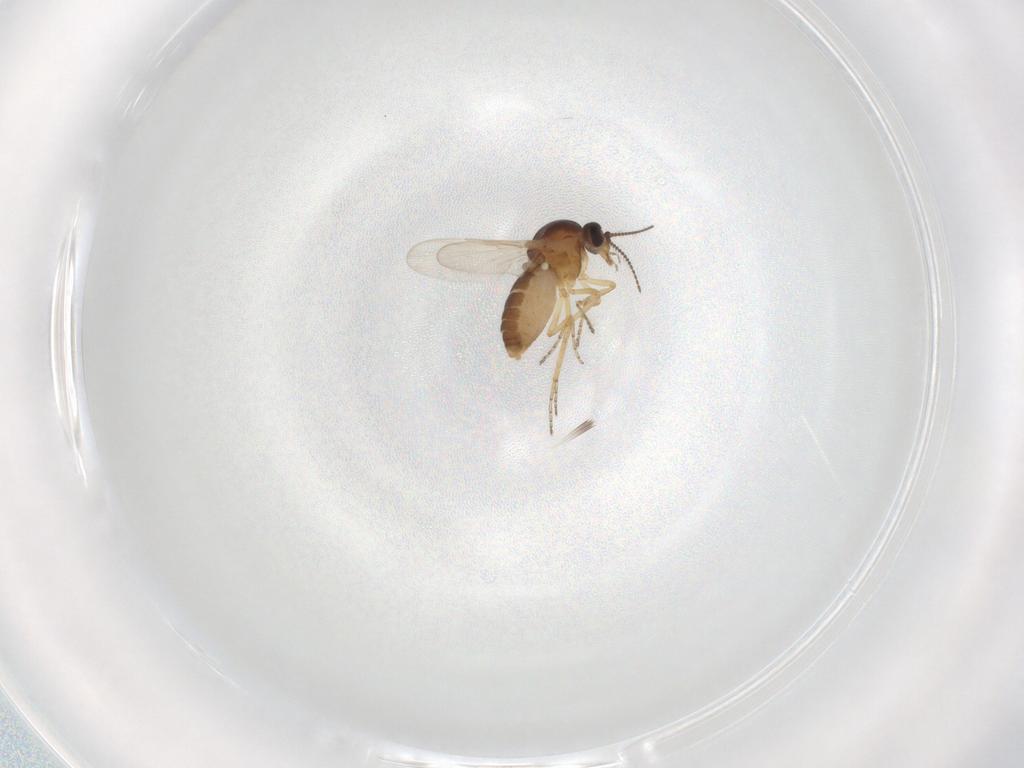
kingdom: Animalia
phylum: Arthropoda
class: Insecta
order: Diptera
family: Ceratopogonidae
